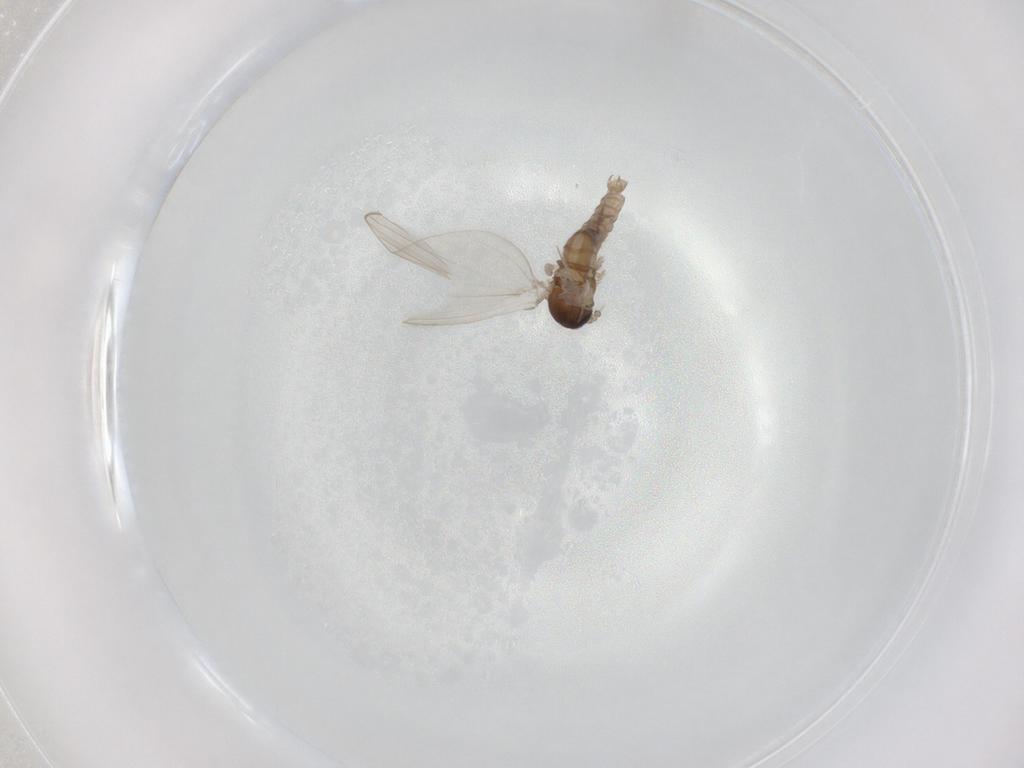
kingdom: Animalia
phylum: Arthropoda
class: Insecta
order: Diptera
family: Psychodidae
